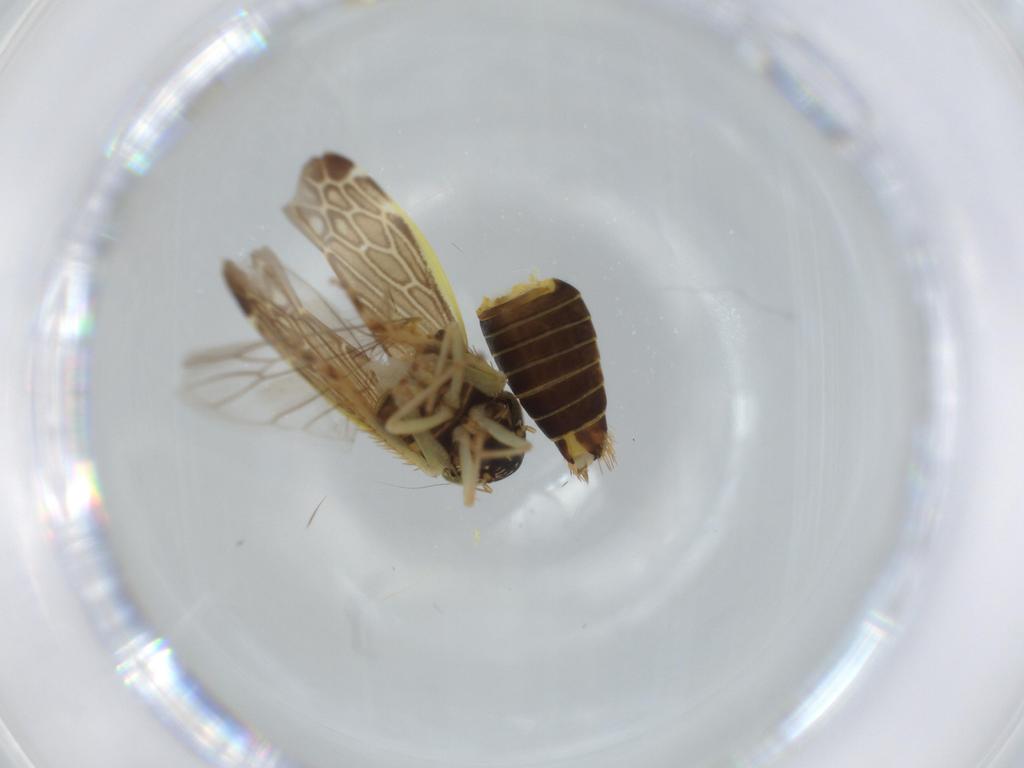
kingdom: Animalia
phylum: Arthropoda
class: Insecta
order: Hemiptera
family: Cicadellidae
